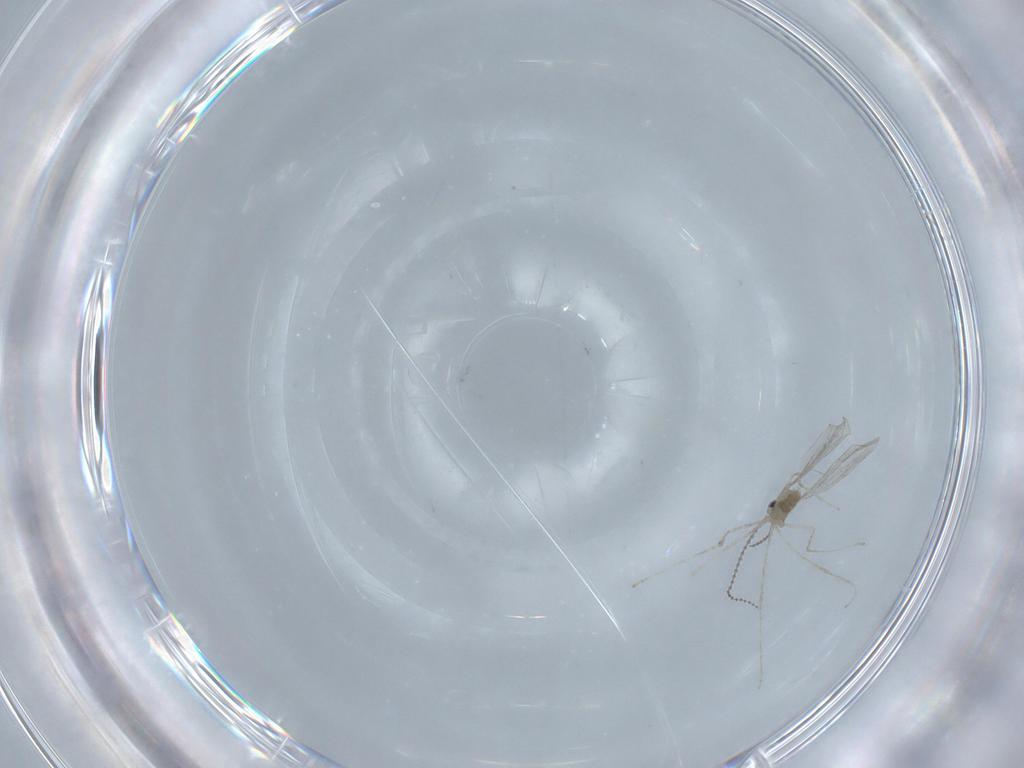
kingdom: Animalia
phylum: Arthropoda
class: Insecta
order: Diptera
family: Cecidomyiidae
